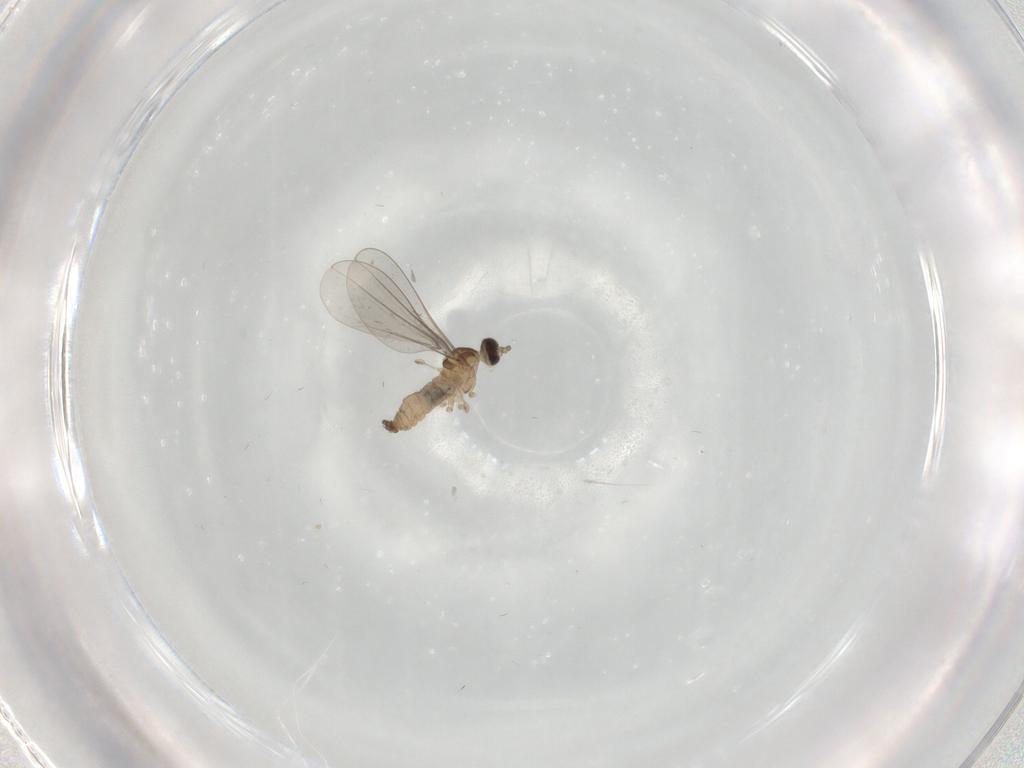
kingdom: Animalia
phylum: Arthropoda
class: Insecta
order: Diptera
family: Cecidomyiidae
